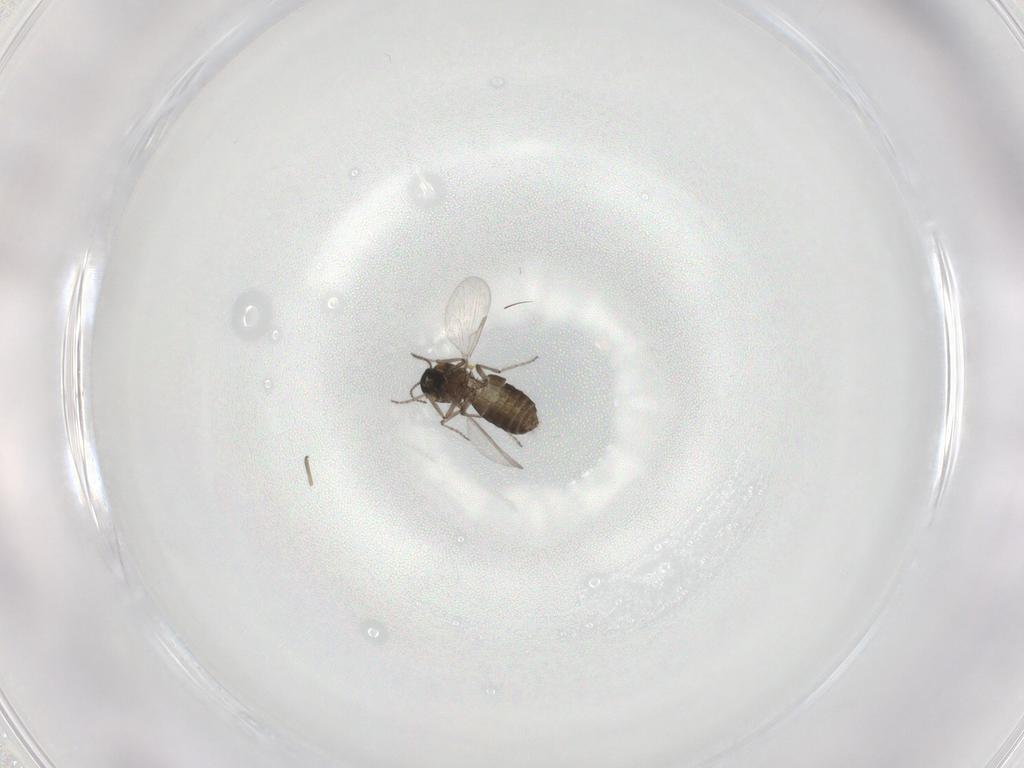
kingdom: Animalia
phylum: Arthropoda
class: Insecta
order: Diptera
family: Ceratopogonidae
